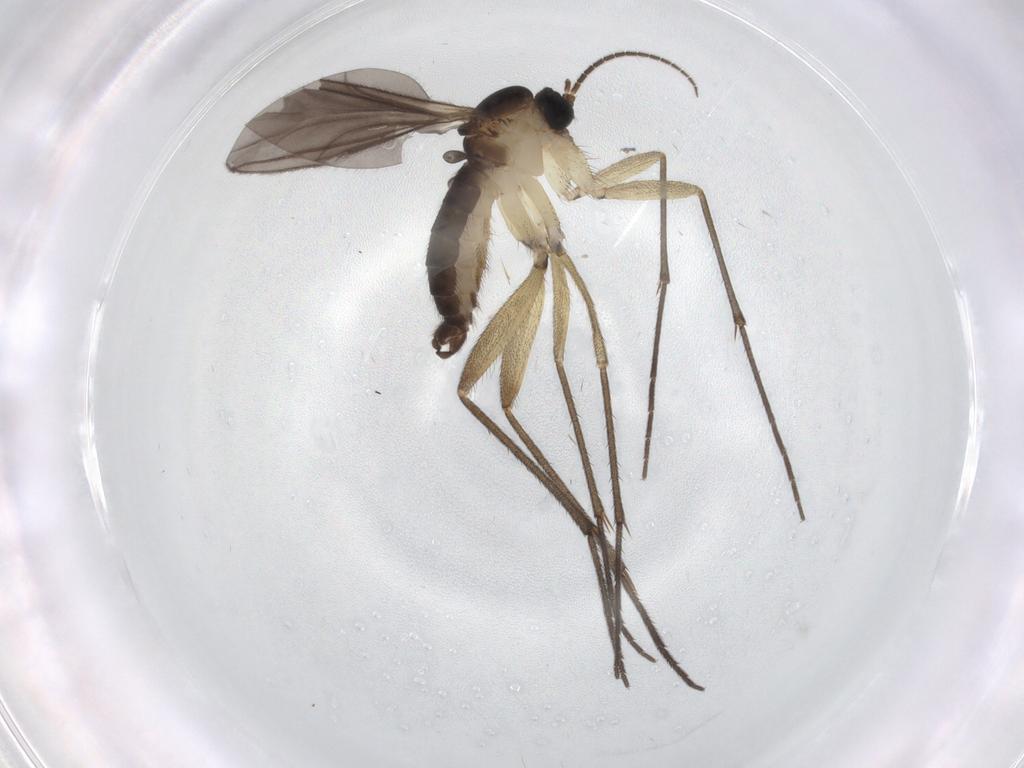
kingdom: Animalia
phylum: Arthropoda
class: Insecta
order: Diptera
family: Sciaridae
